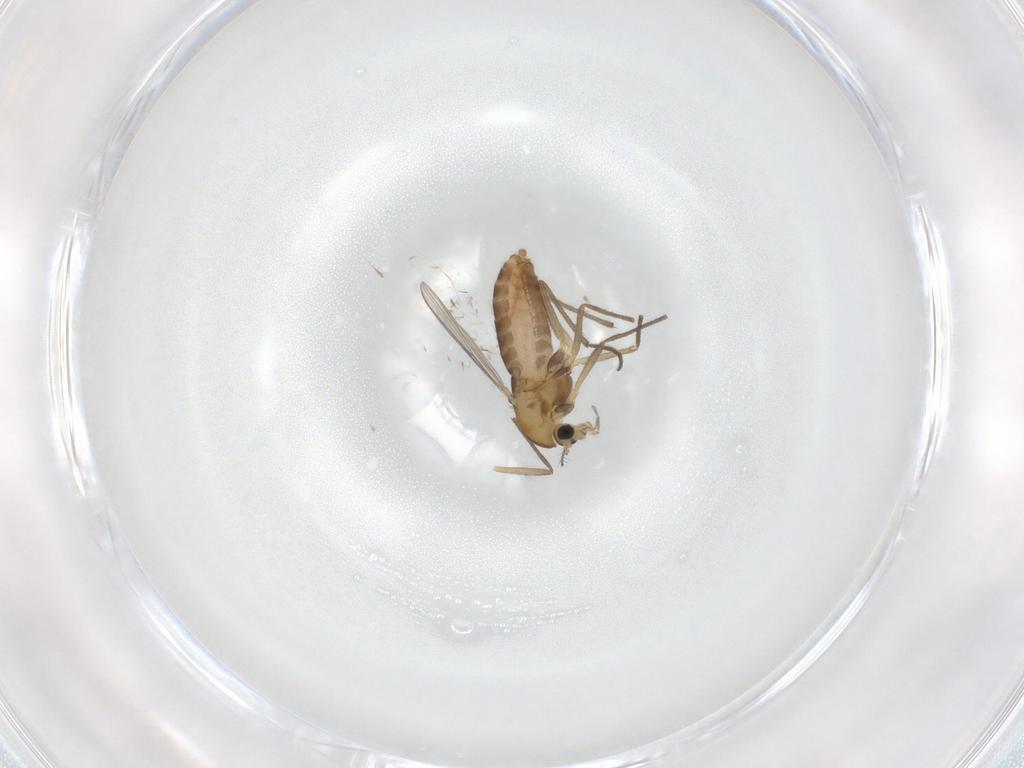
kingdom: Animalia
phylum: Arthropoda
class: Insecta
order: Diptera
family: Chironomidae
